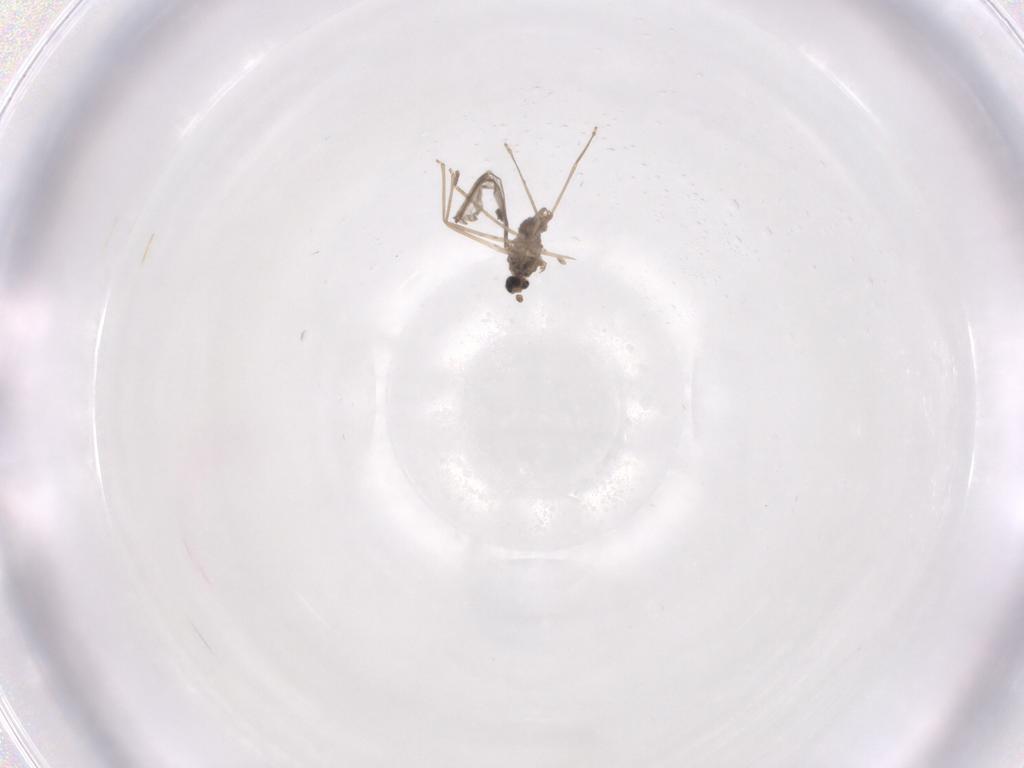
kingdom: Animalia
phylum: Arthropoda
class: Insecta
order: Diptera
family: Cecidomyiidae
